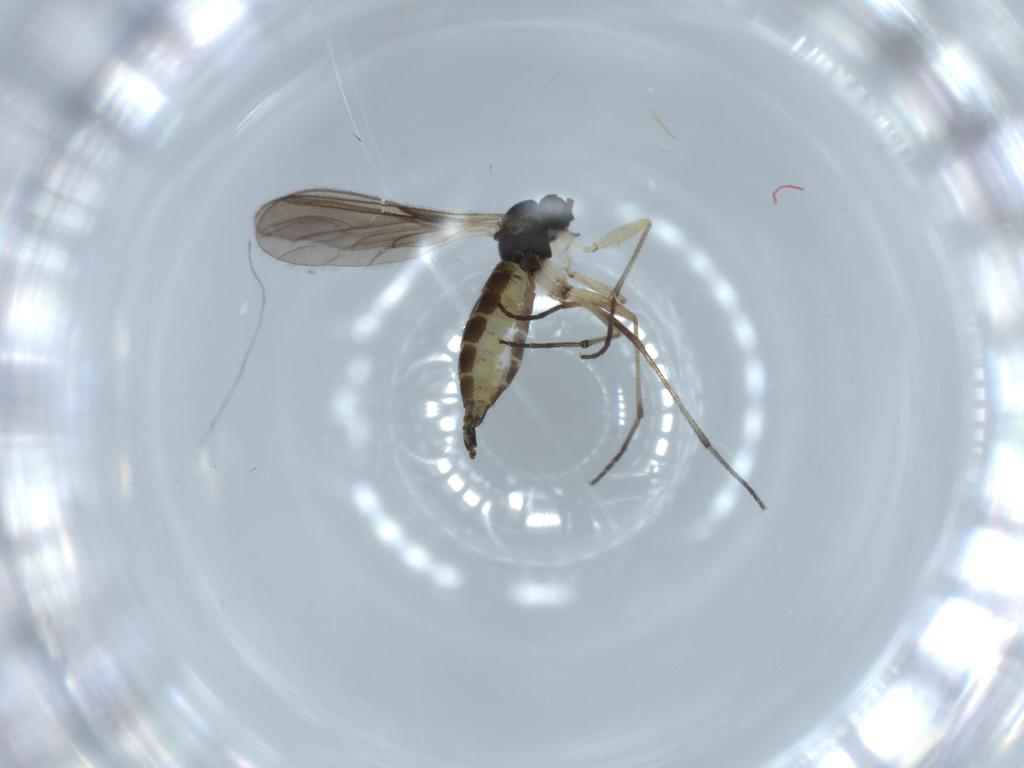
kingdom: Animalia
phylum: Arthropoda
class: Insecta
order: Diptera
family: Sciaridae
